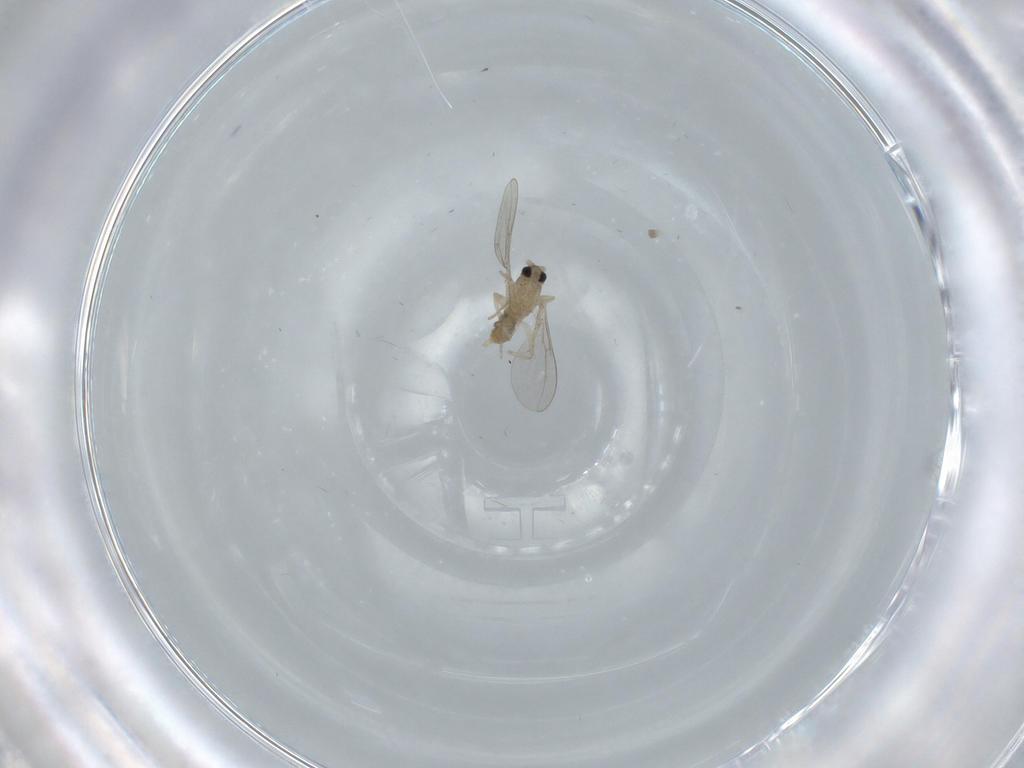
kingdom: Animalia
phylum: Arthropoda
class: Insecta
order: Diptera
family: Cecidomyiidae
